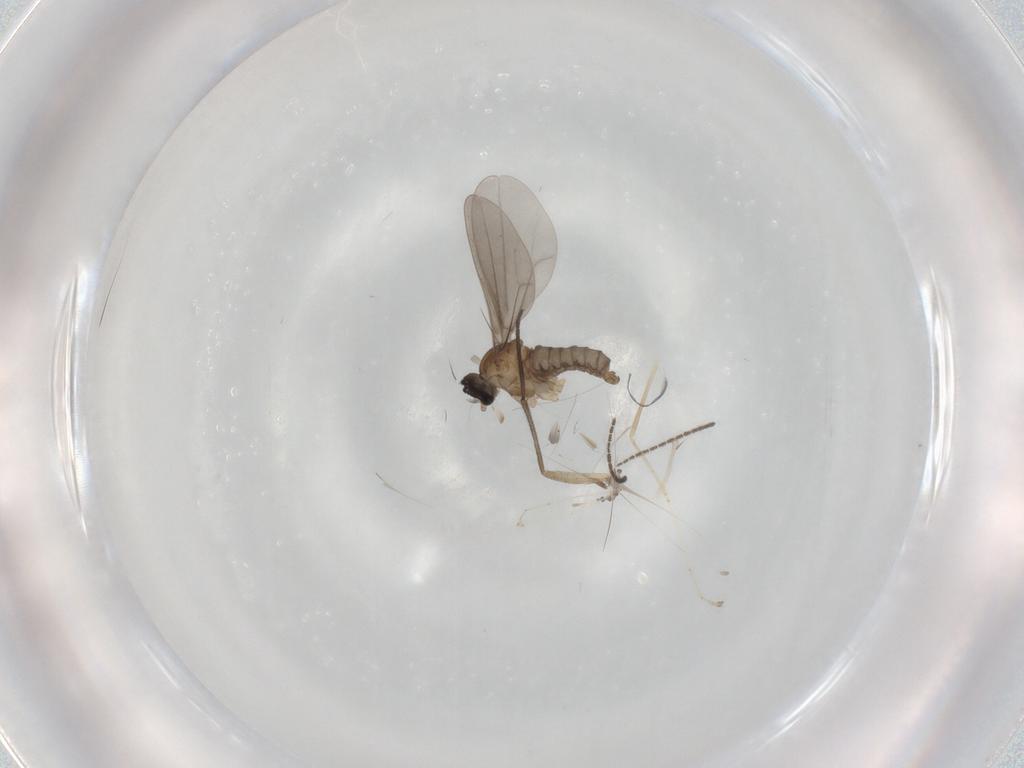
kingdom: Animalia
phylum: Arthropoda
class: Insecta
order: Diptera
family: Sciaridae
